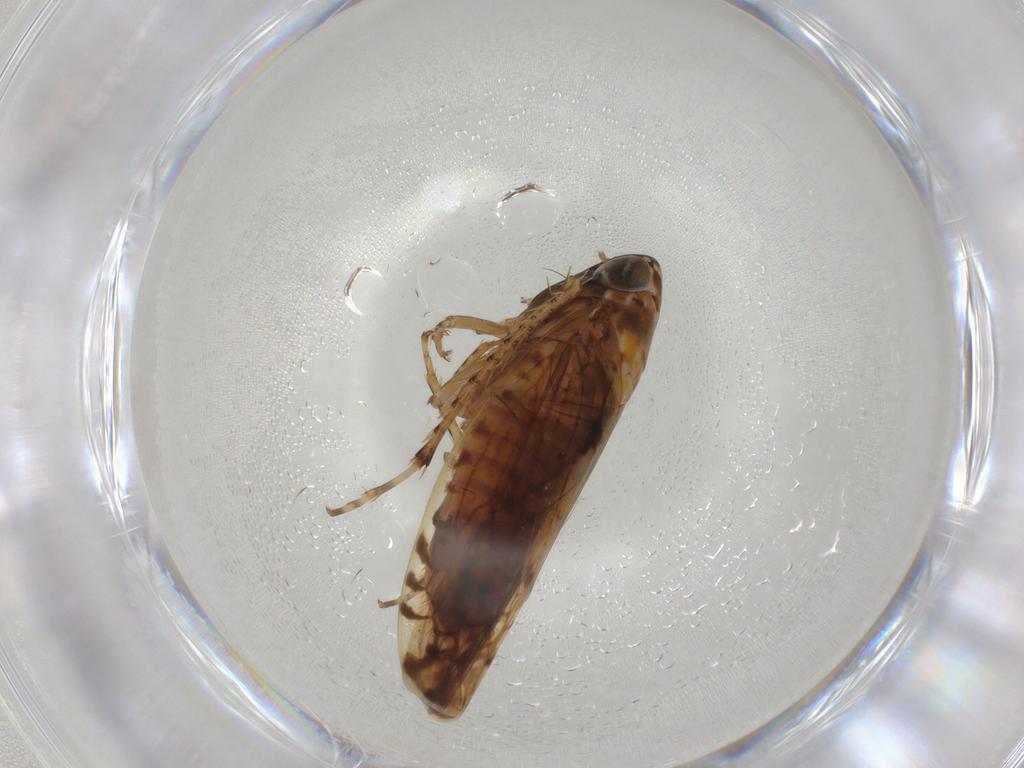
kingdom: Animalia
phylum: Arthropoda
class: Insecta
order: Hemiptera
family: Cicadellidae
